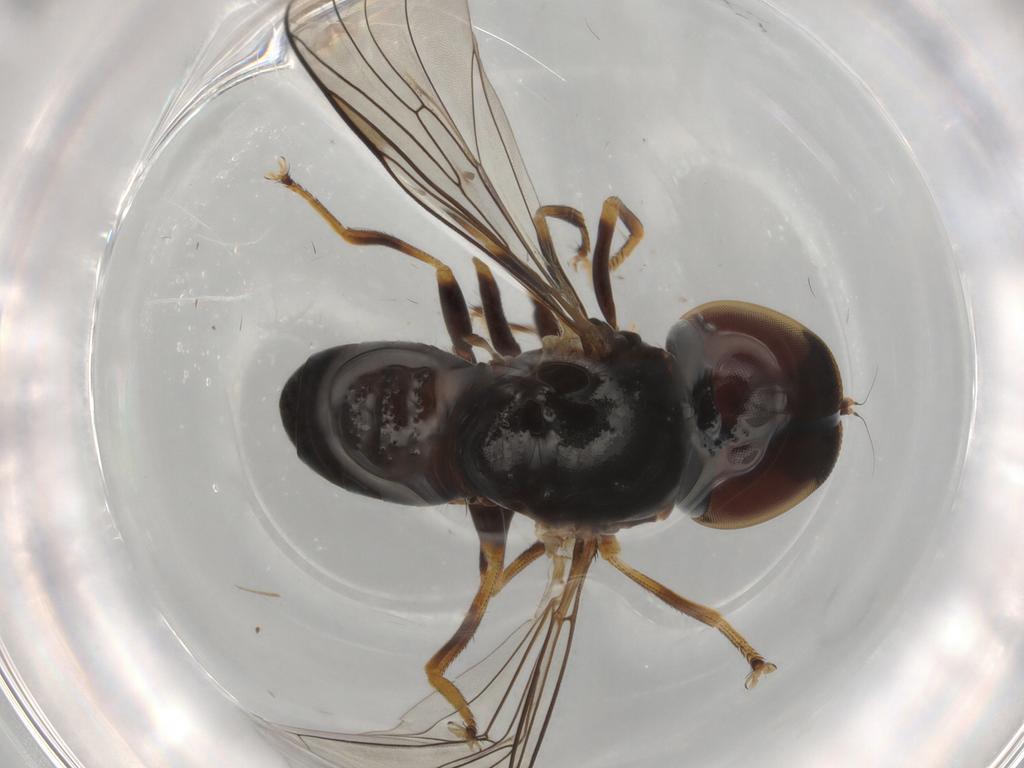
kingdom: Animalia
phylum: Arthropoda
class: Insecta
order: Diptera
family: Pipunculidae
